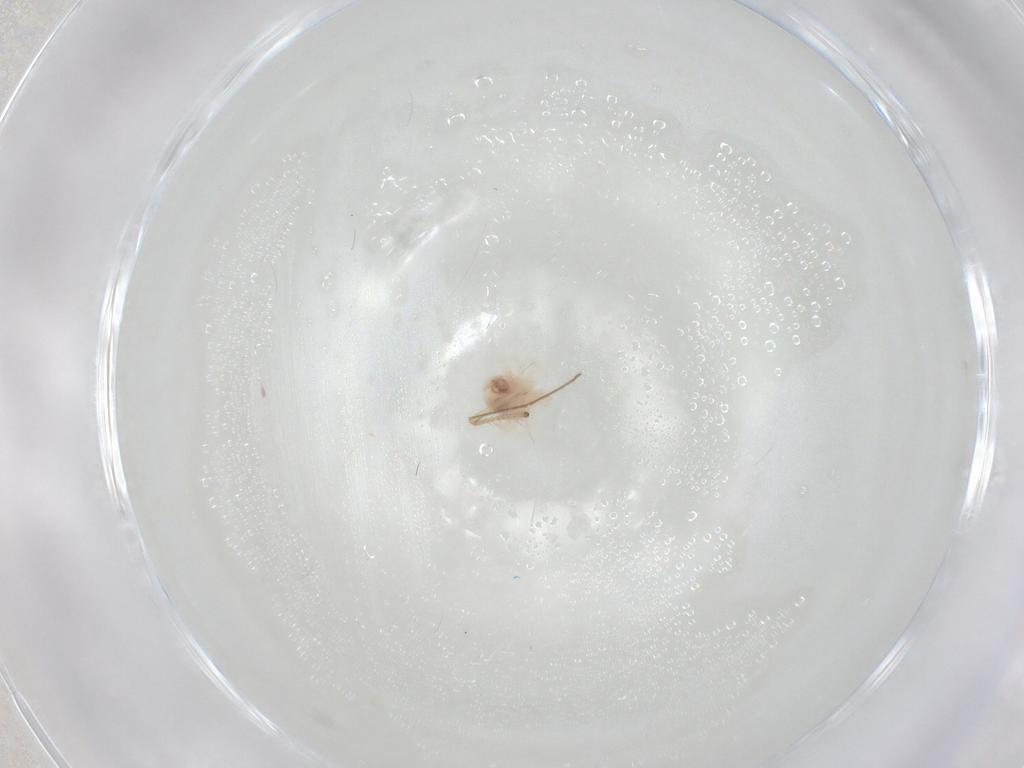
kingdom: Animalia
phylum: Arthropoda
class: Arachnida
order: Trombidiformes
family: Anystidae
